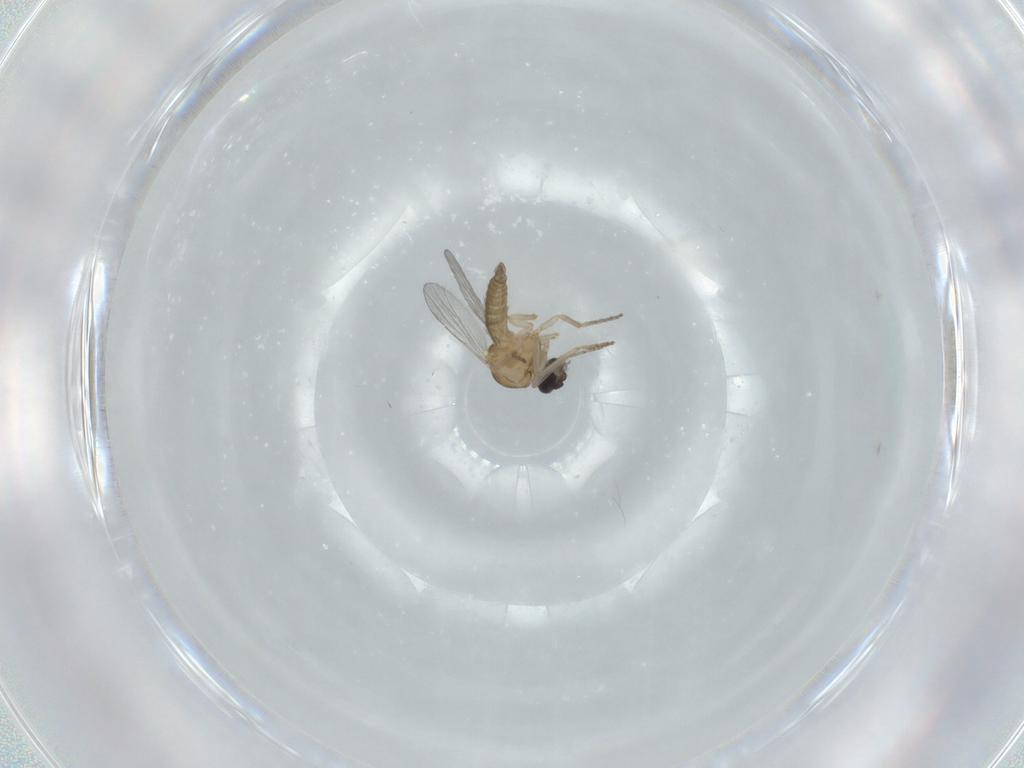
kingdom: Animalia
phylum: Arthropoda
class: Insecta
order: Diptera
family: Ceratopogonidae
